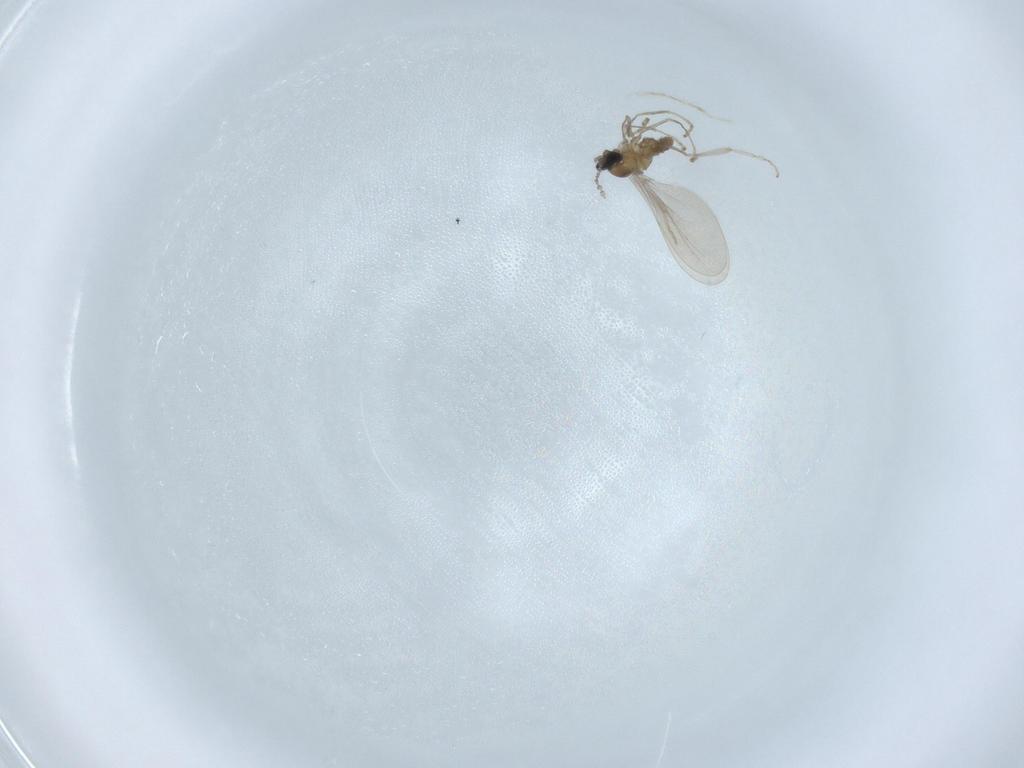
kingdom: Animalia
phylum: Arthropoda
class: Insecta
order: Diptera
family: Cecidomyiidae
